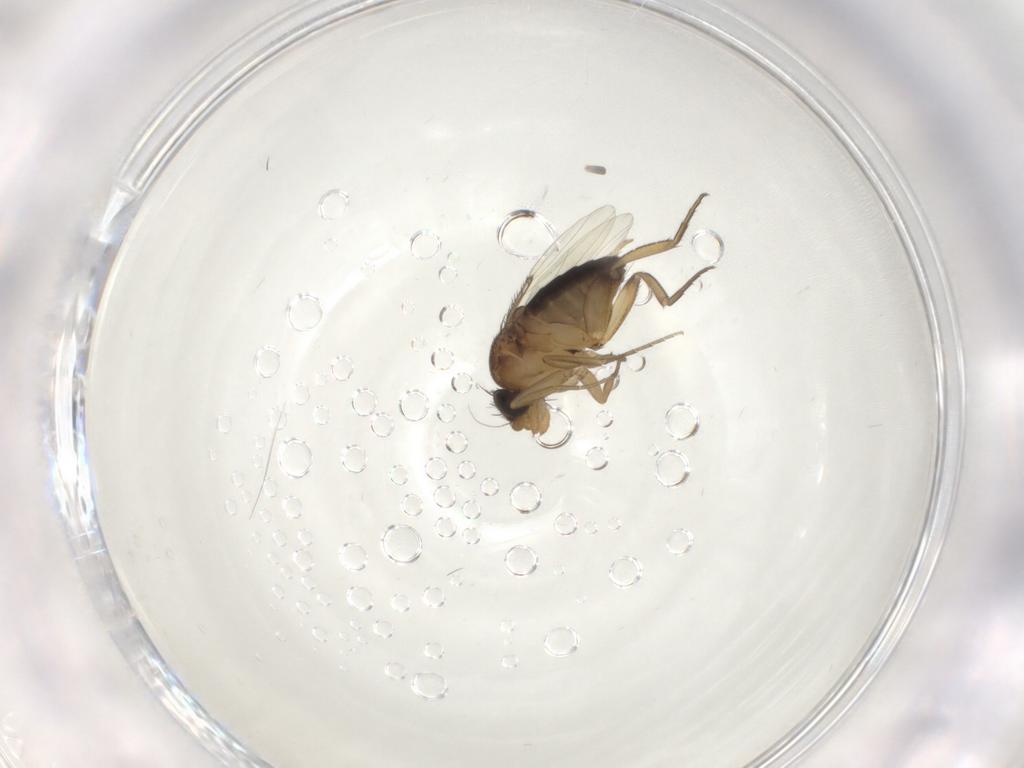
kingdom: Animalia
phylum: Arthropoda
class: Insecta
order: Diptera
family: Phoridae
